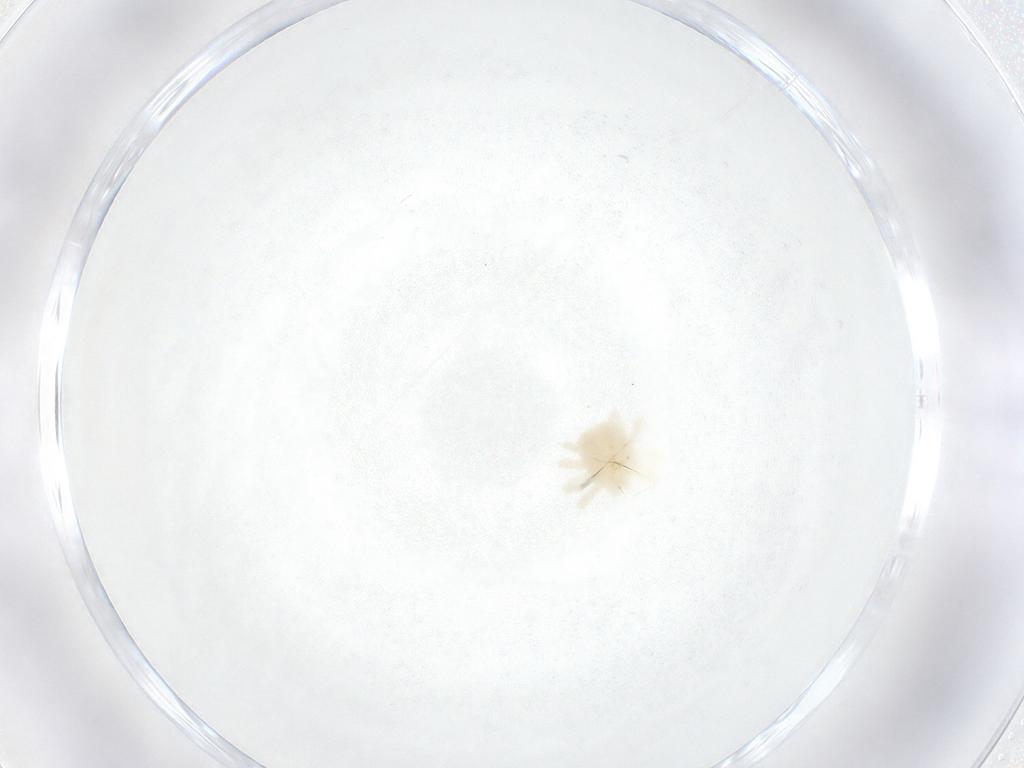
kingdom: Animalia
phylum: Arthropoda
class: Arachnida
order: Trombidiformes
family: Anystidae
